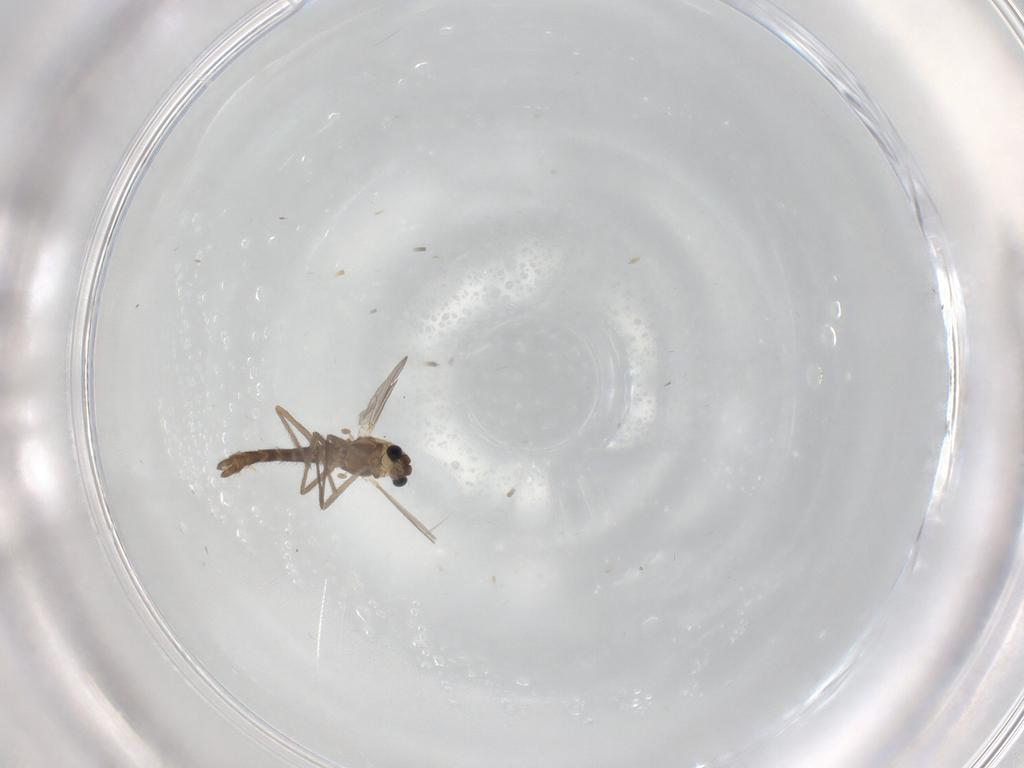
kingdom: Animalia
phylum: Arthropoda
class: Insecta
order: Diptera
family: Chironomidae
